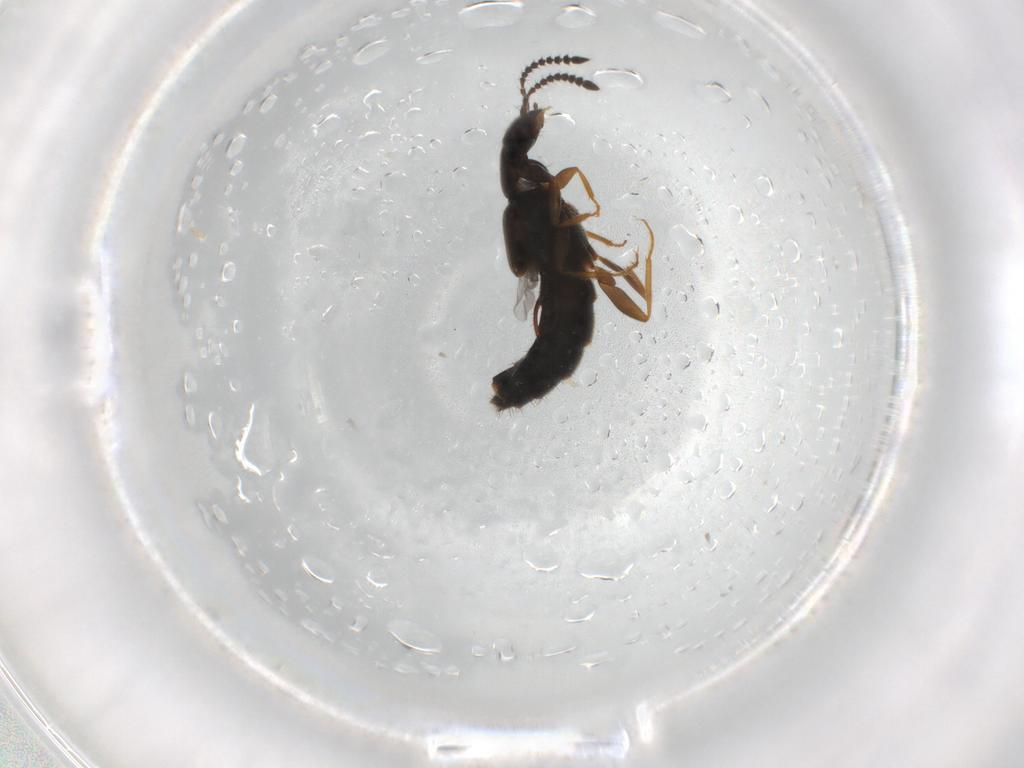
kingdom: Animalia
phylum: Arthropoda
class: Insecta
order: Coleoptera
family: Staphylinidae
